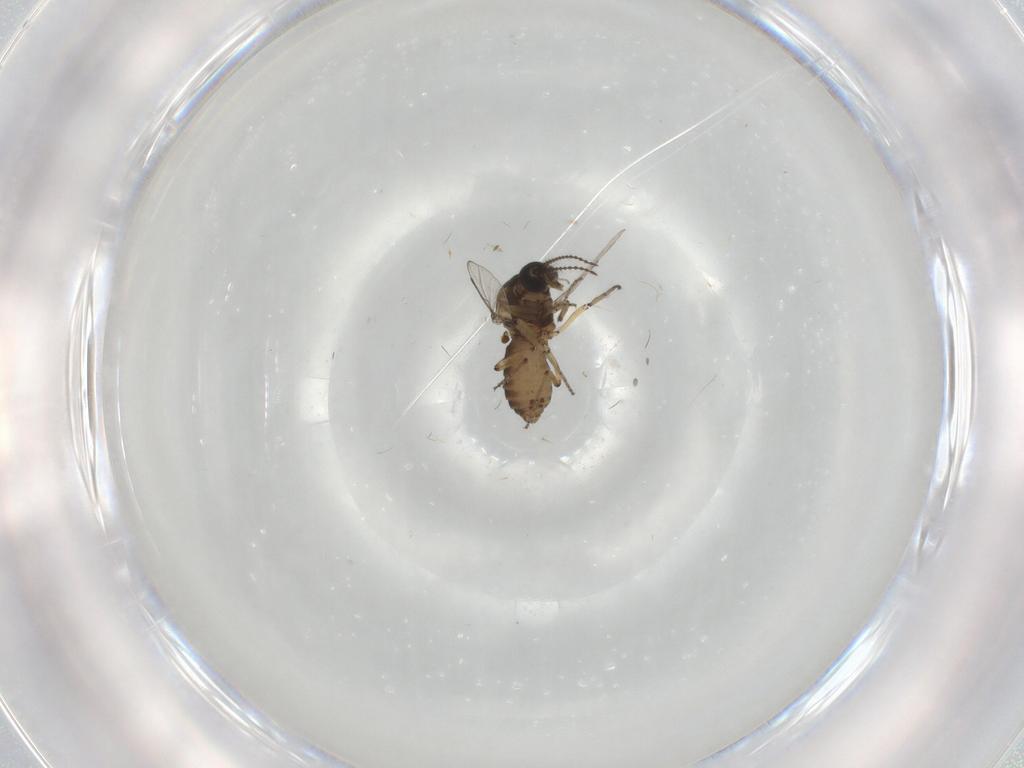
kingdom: Animalia
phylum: Arthropoda
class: Insecta
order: Diptera
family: Ceratopogonidae
